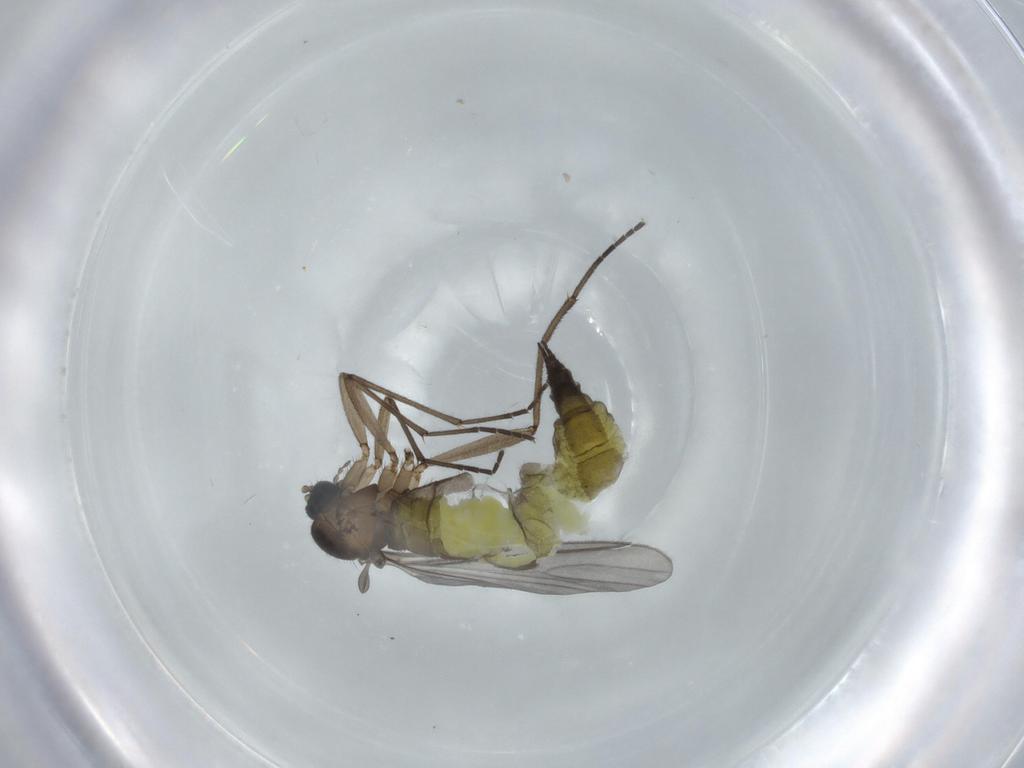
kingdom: Animalia
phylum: Arthropoda
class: Insecta
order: Diptera
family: Sciaridae
